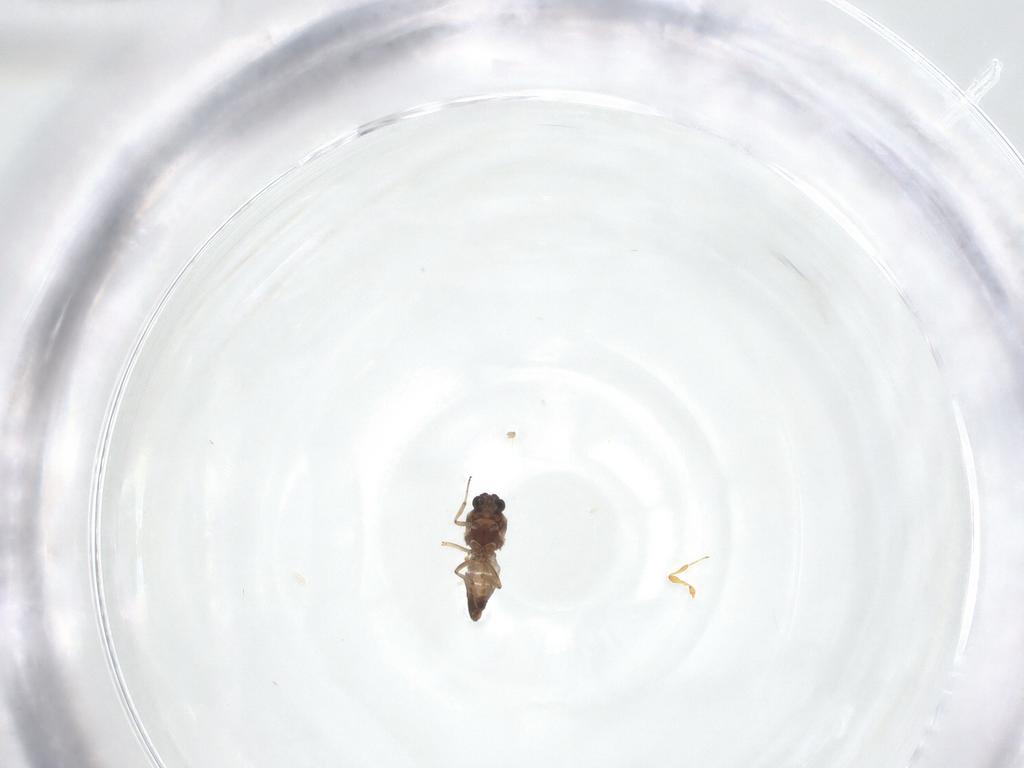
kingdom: Animalia
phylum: Arthropoda
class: Insecta
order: Diptera
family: Ceratopogonidae
